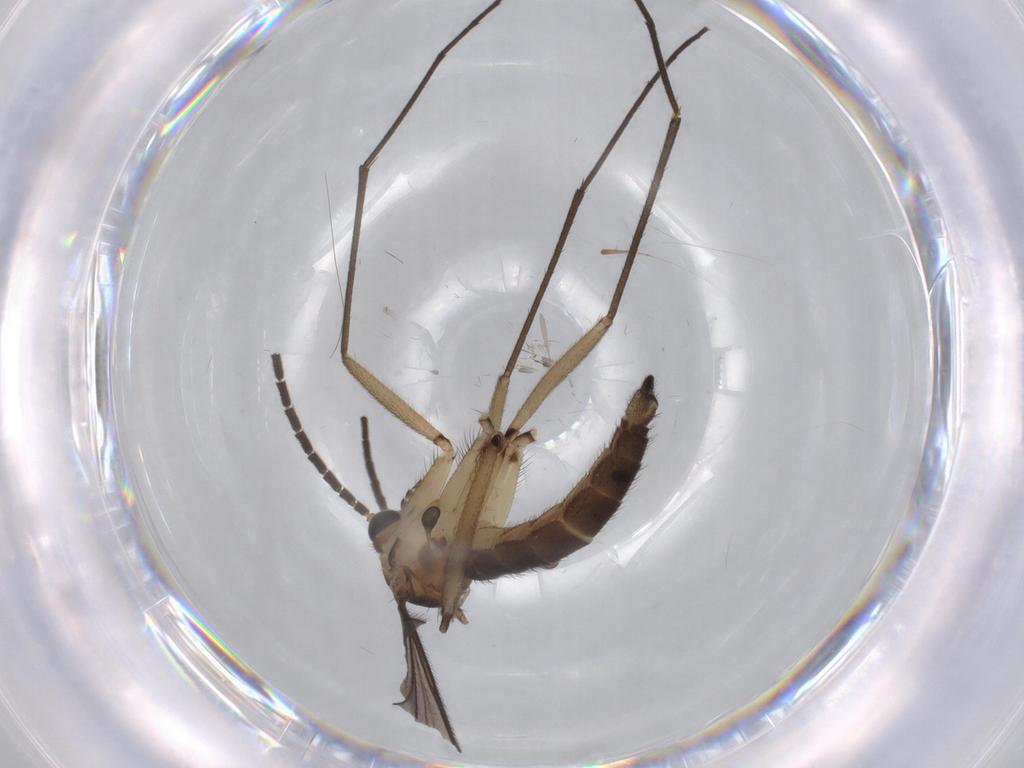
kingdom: Animalia
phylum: Arthropoda
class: Insecta
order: Diptera
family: Sciaridae
